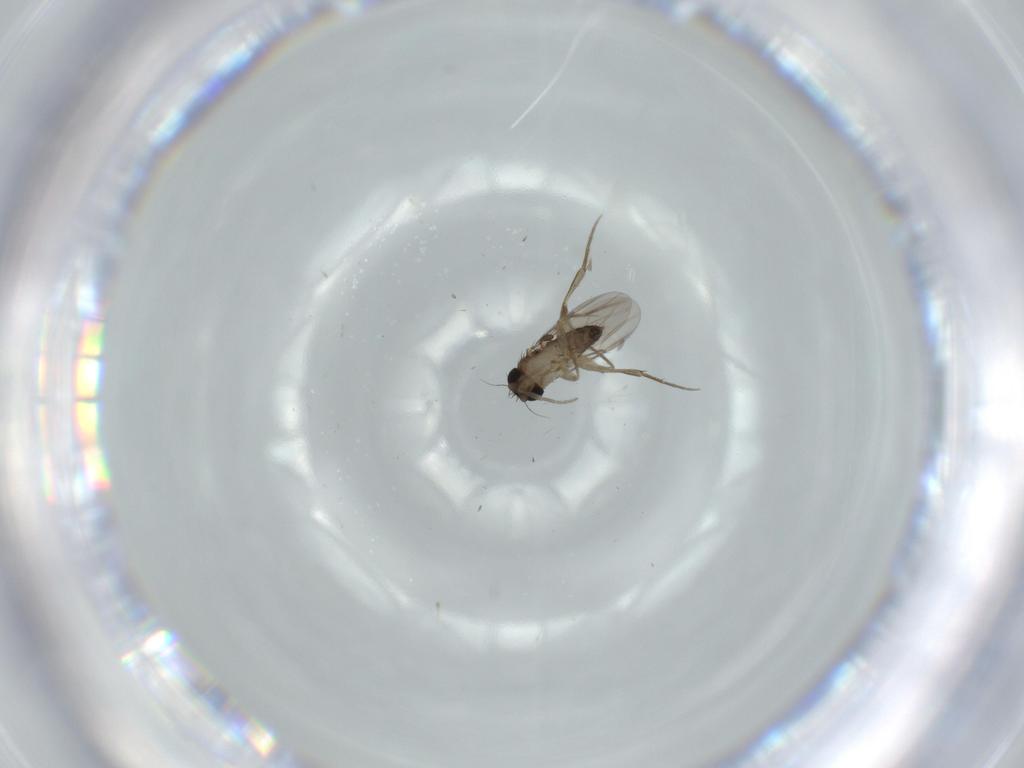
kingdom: Animalia
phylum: Arthropoda
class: Insecta
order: Diptera
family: Phoridae
